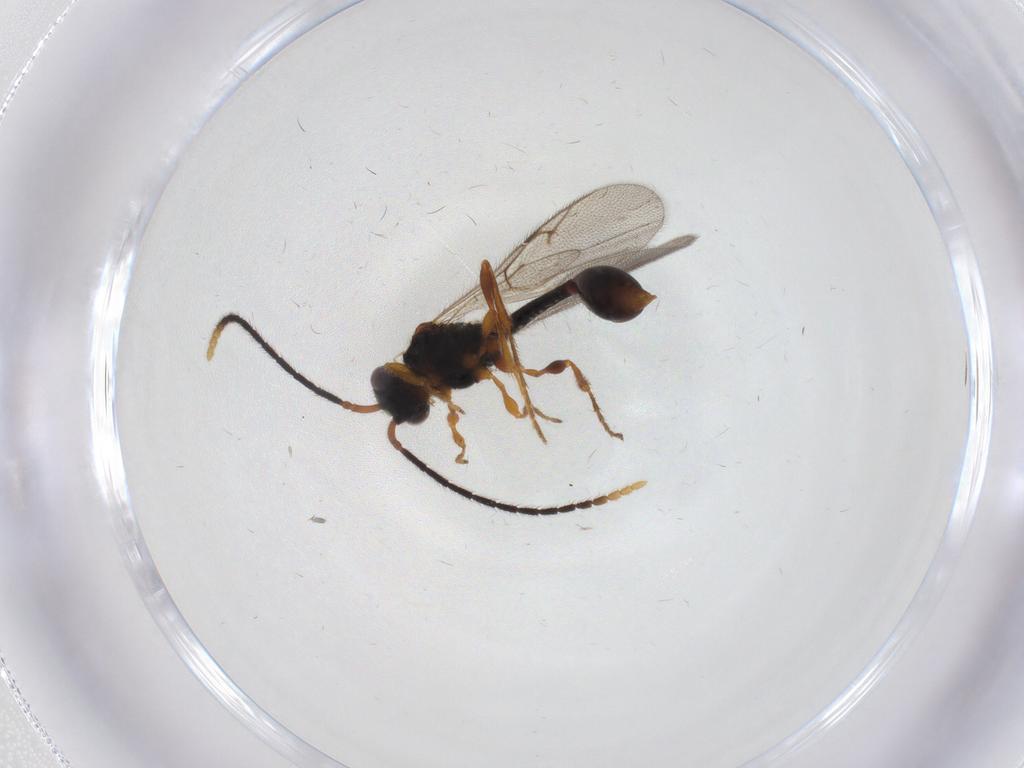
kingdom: Animalia
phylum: Arthropoda
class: Insecta
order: Hymenoptera
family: Diapriidae
